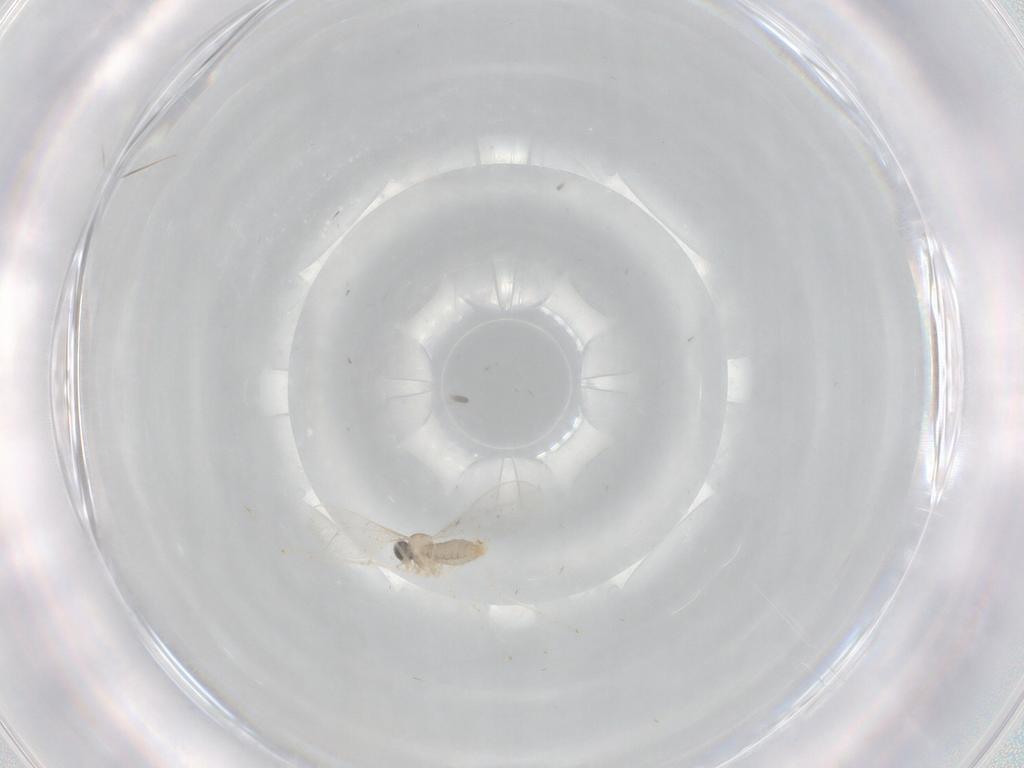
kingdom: Animalia
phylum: Arthropoda
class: Insecta
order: Diptera
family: Cecidomyiidae
